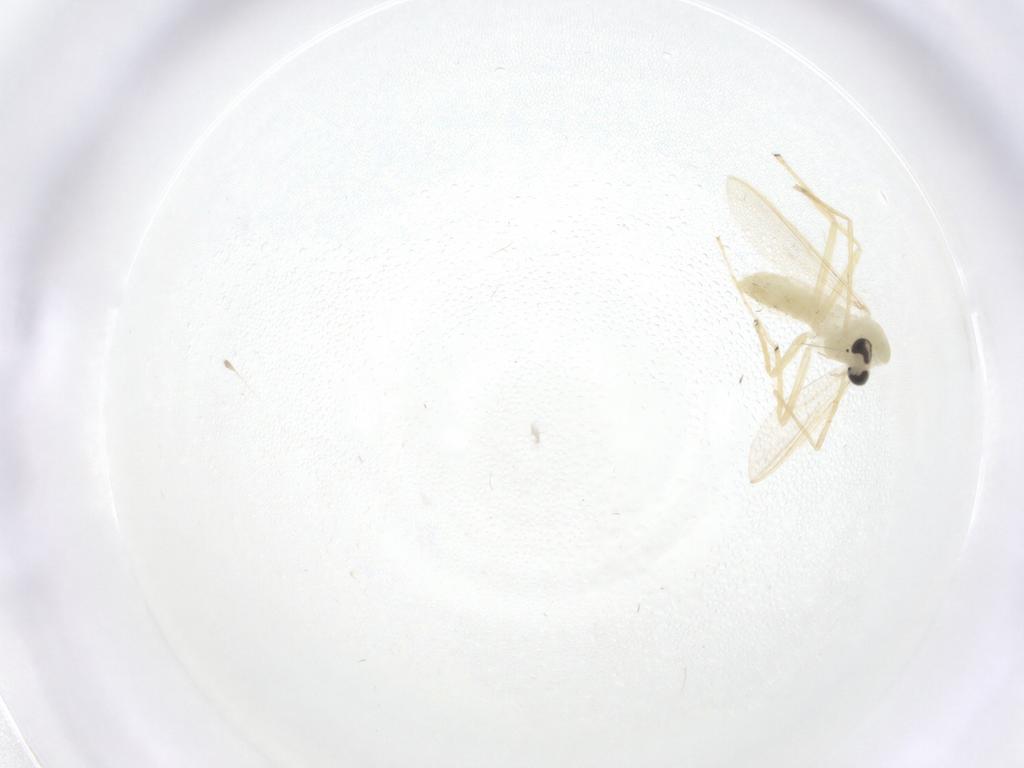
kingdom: Animalia
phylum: Arthropoda
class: Insecta
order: Diptera
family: Chironomidae
